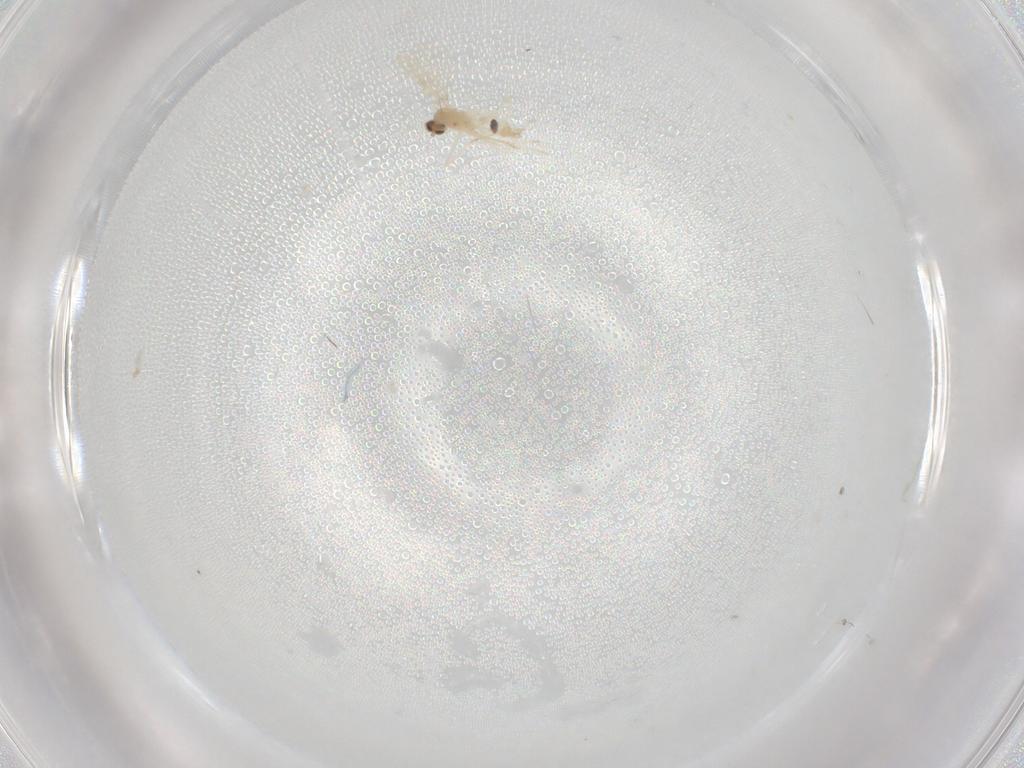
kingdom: Animalia
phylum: Arthropoda
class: Insecta
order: Diptera
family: Cecidomyiidae
